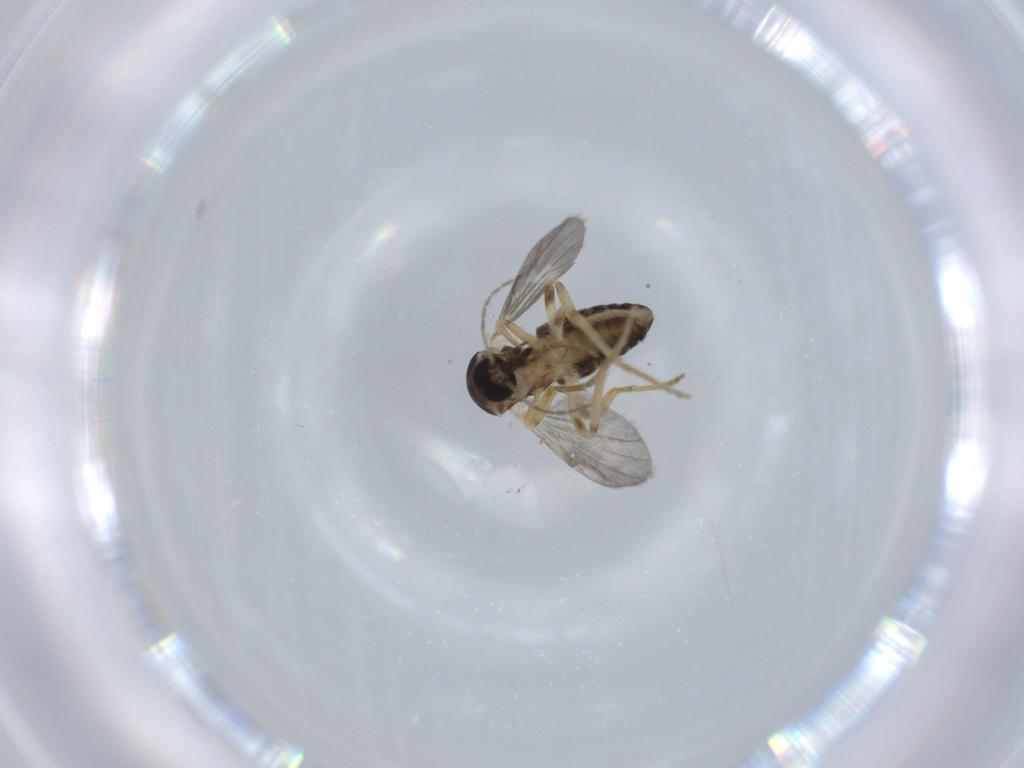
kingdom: Animalia
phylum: Arthropoda
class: Insecta
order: Diptera
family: Ceratopogonidae
